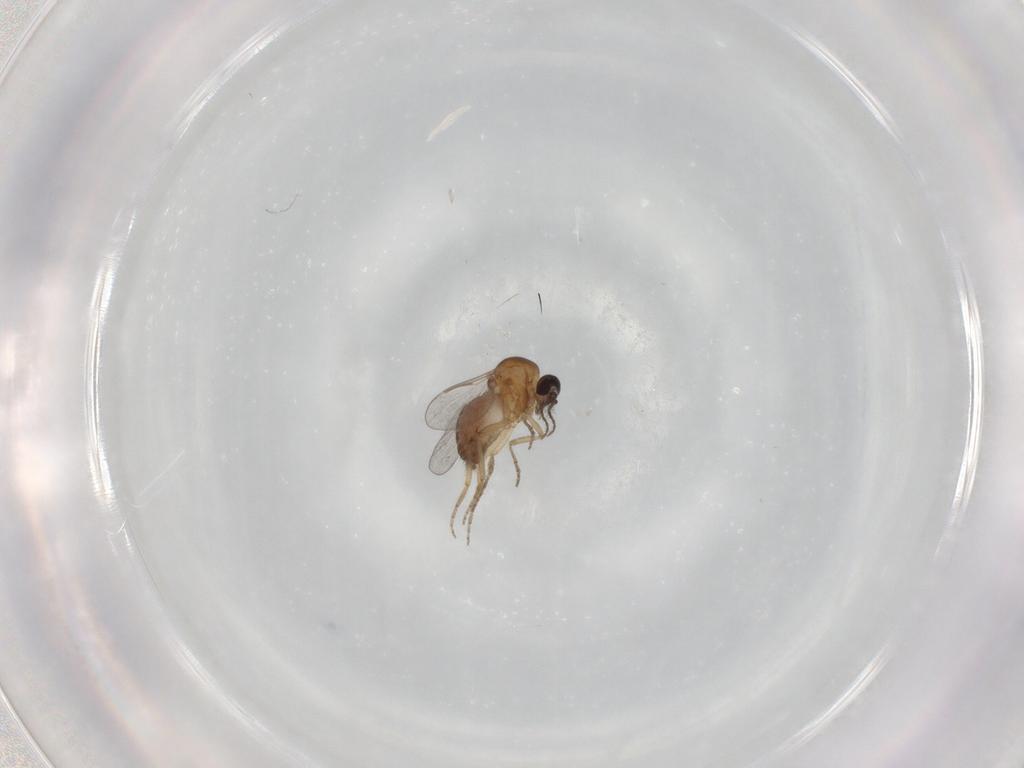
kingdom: Animalia
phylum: Arthropoda
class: Insecta
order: Diptera
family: Ceratopogonidae
